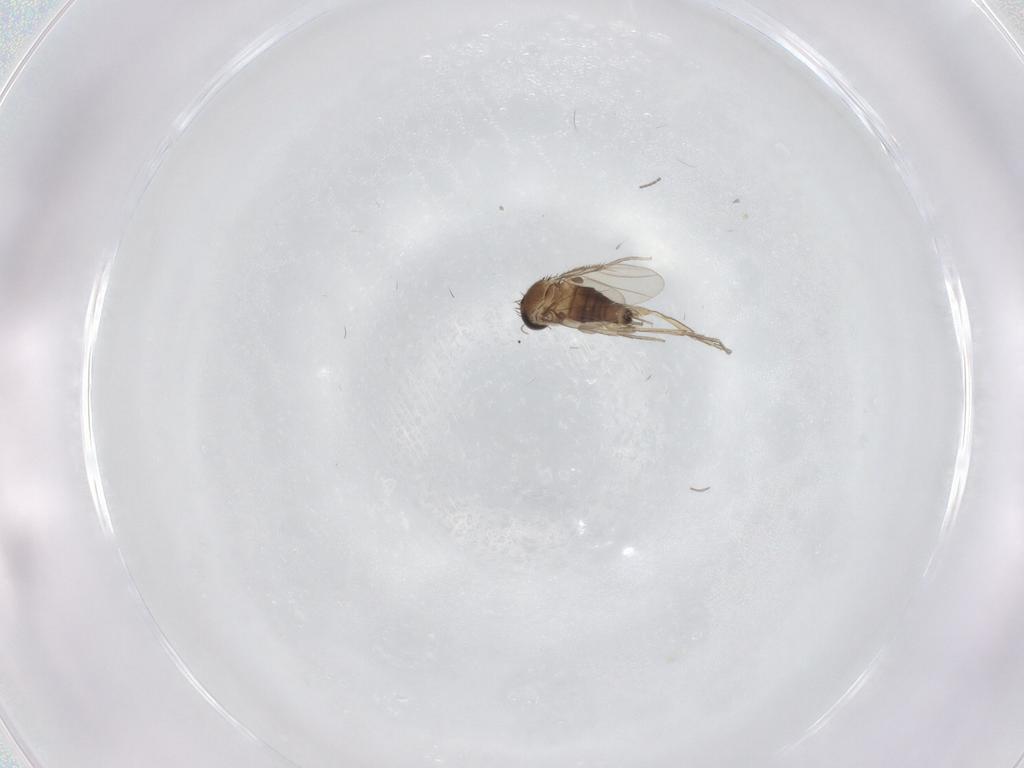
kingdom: Animalia
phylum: Arthropoda
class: Insecta
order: Diptera
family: Phoridae
